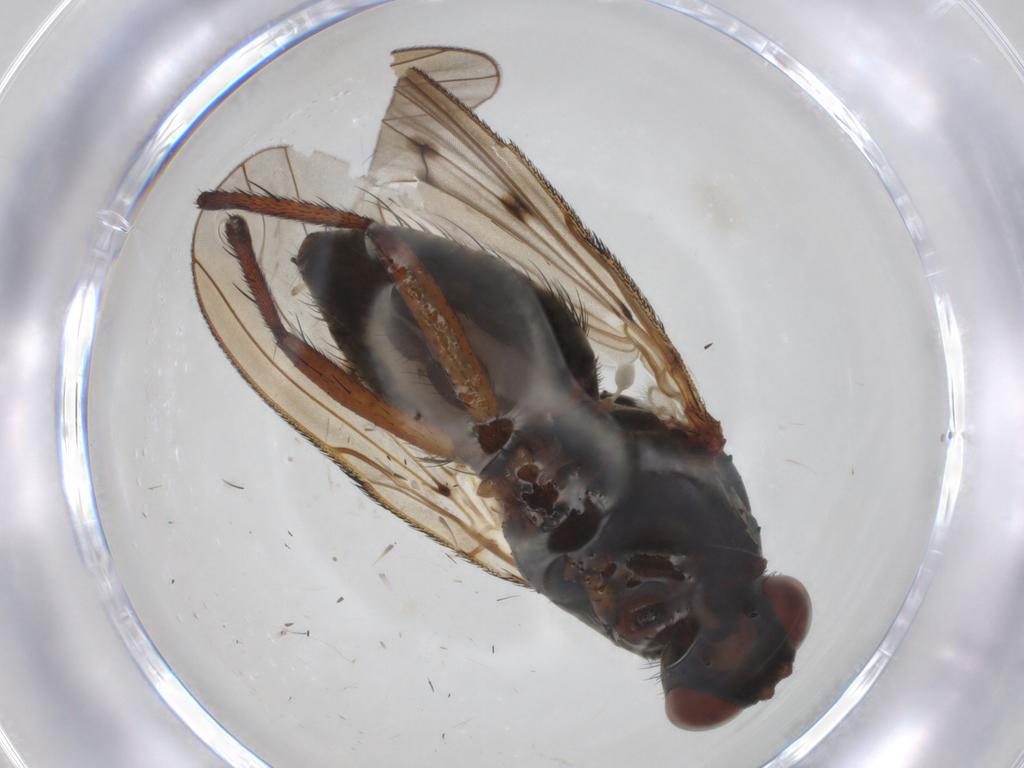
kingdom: Animalia
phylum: Arthropoda
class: Insecta
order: Diptera
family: Anthomyiidae
